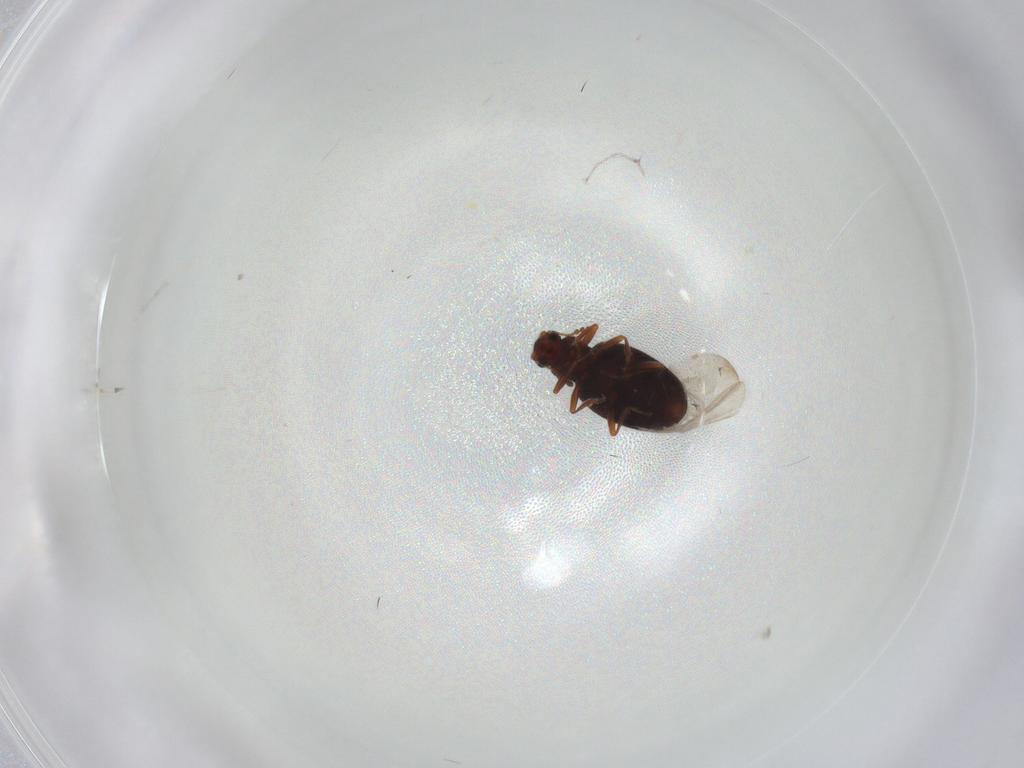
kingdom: Animalia
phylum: Arthropoda
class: Insecta
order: Coleoptera
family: Latridiidae
